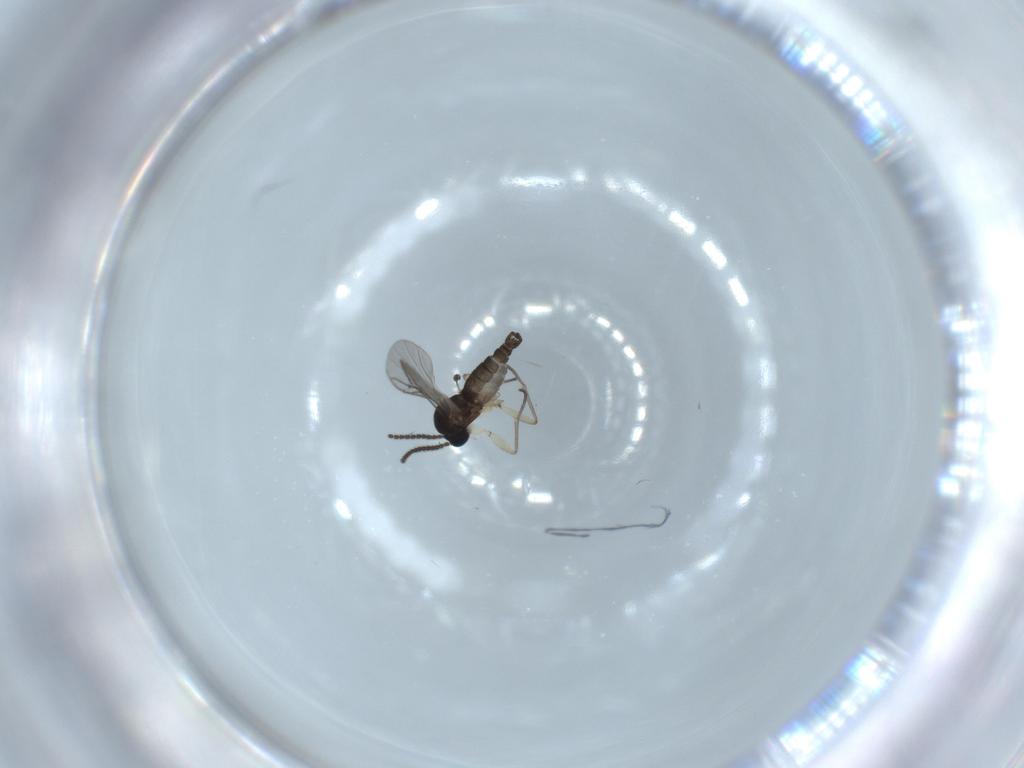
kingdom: Animalia
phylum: Arthropoda
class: Insecta
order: Diptera
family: Sciaridae
